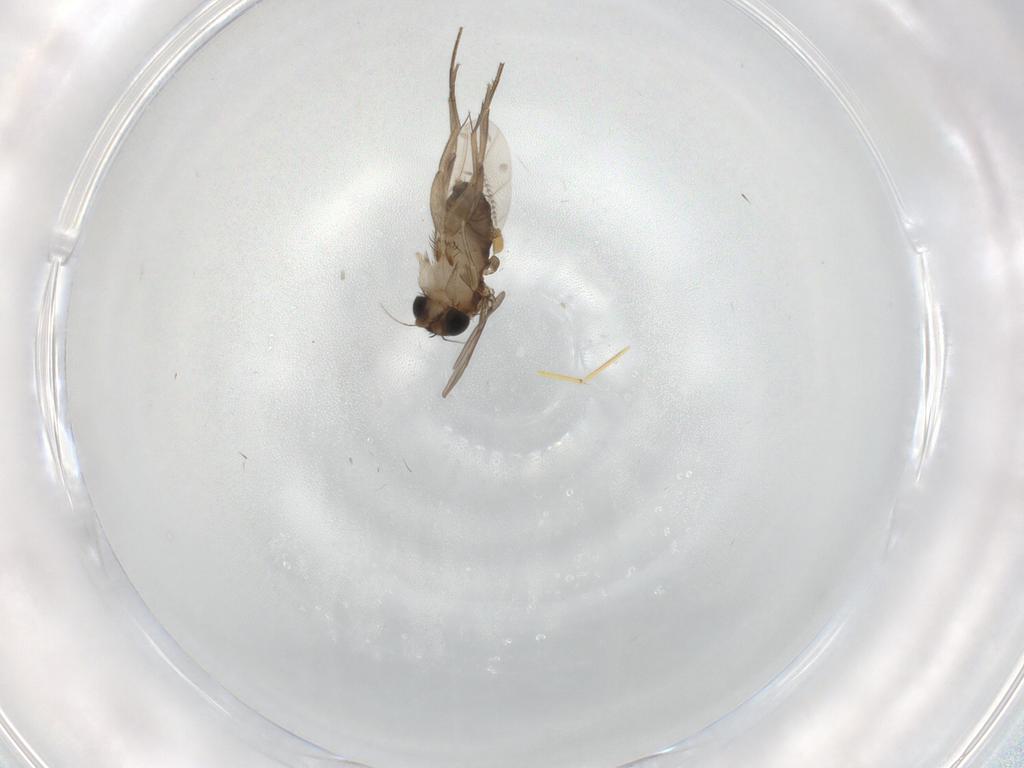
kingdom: Animalia
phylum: Arthropoda
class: Insecta
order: Diptera
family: Phoridae
